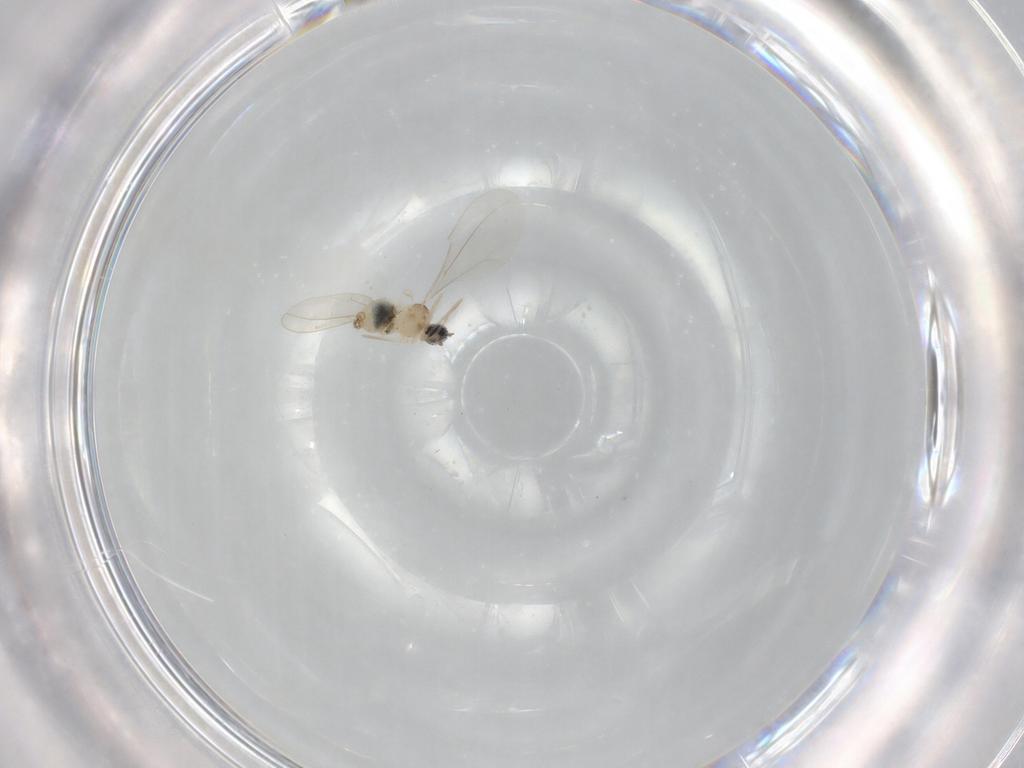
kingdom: Animalia
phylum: Arthropoda
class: Insecta
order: Diptera
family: Cecidomyiidae
